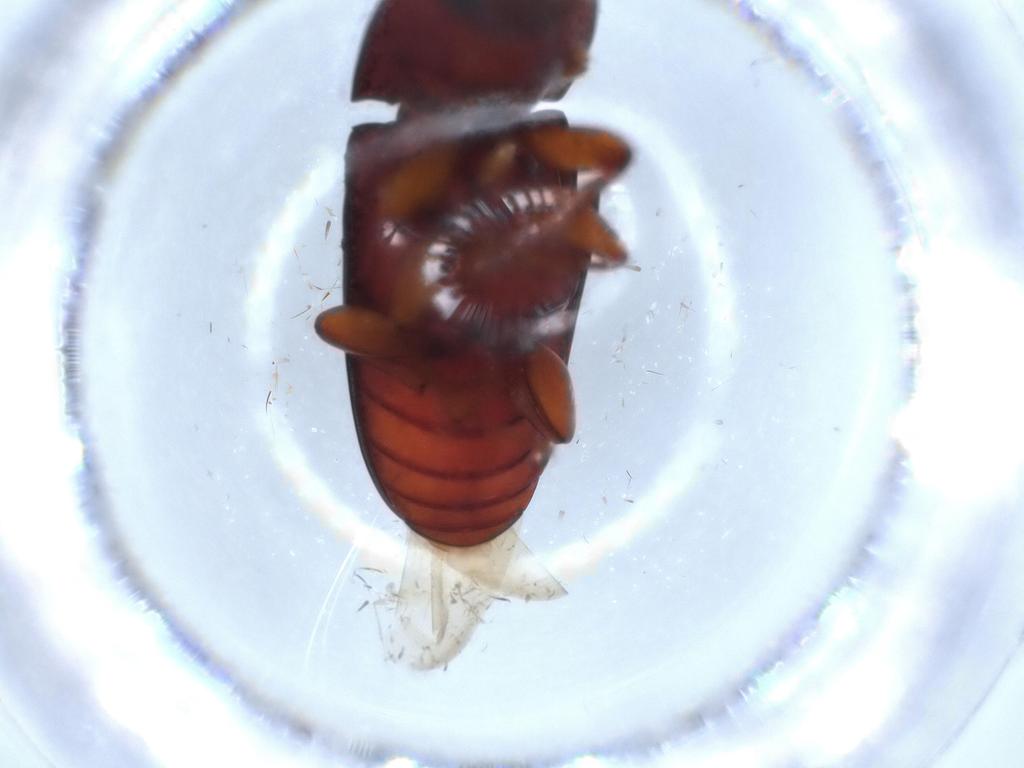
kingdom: Animalia
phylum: Arthropoda
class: Insecta
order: Coleoptera
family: Zopheridae
